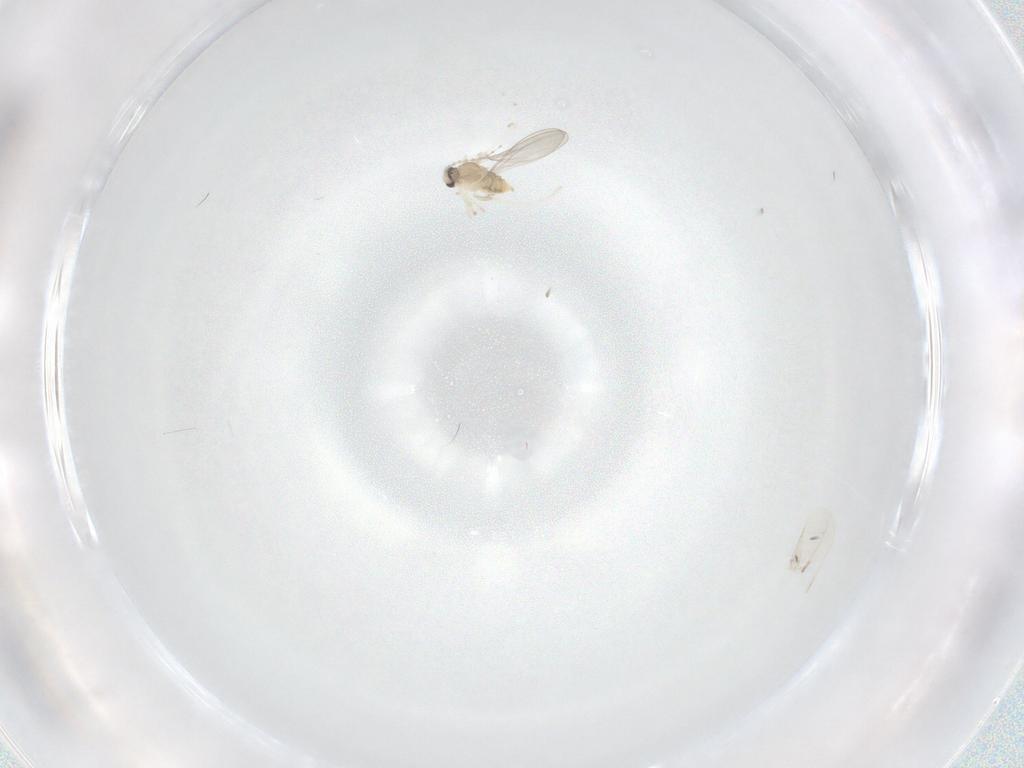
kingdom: Animalia
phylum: Arthropoda
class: Insecta
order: Diptera
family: Cecidomyiidae
